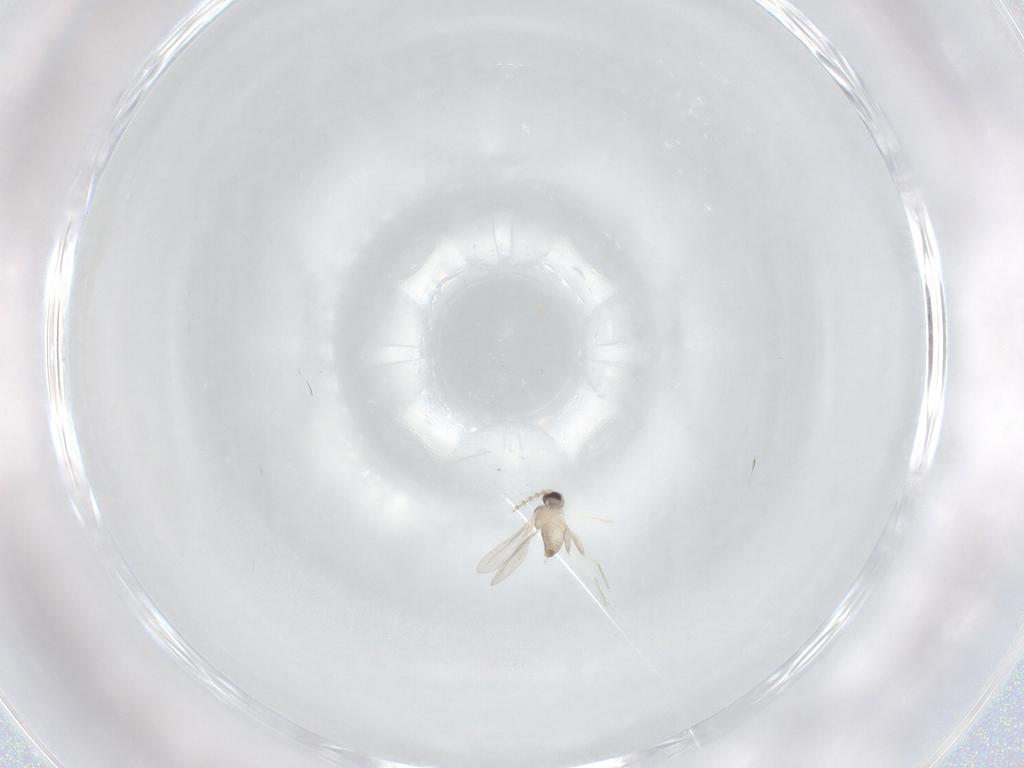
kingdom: Animalia
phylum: Arthropoda
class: Insecta
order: Diptera
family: Cecidomyiidae
